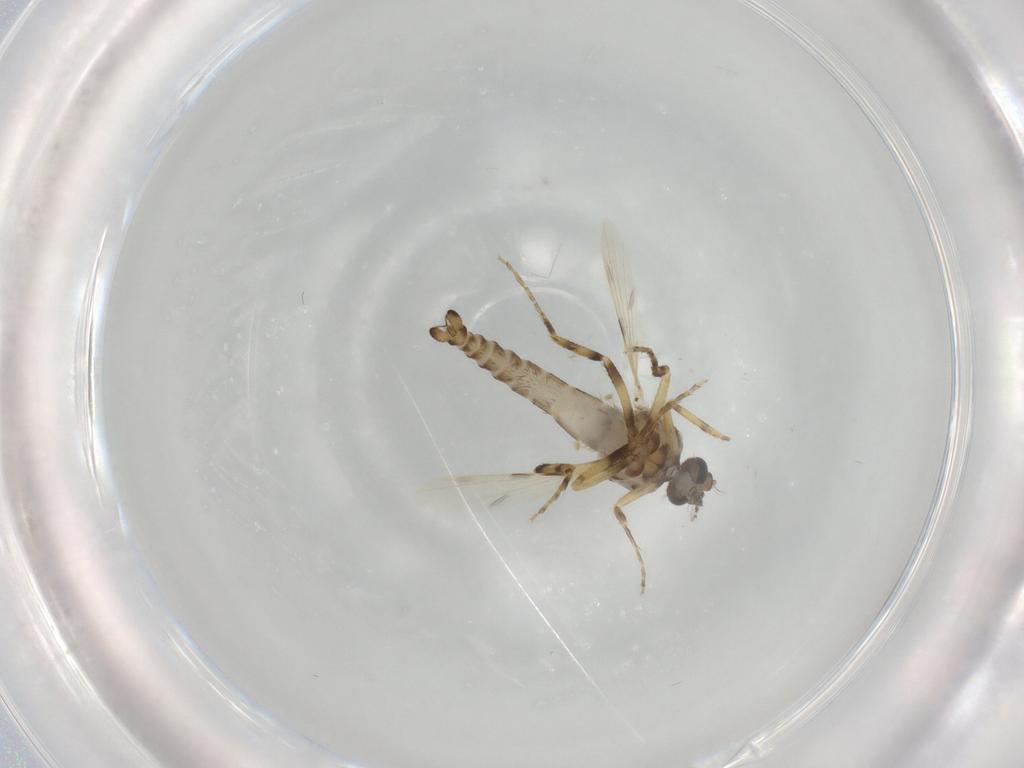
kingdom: Animalia
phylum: Arthropoda
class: Insecta
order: Diptera
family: Ceratopogonidae
